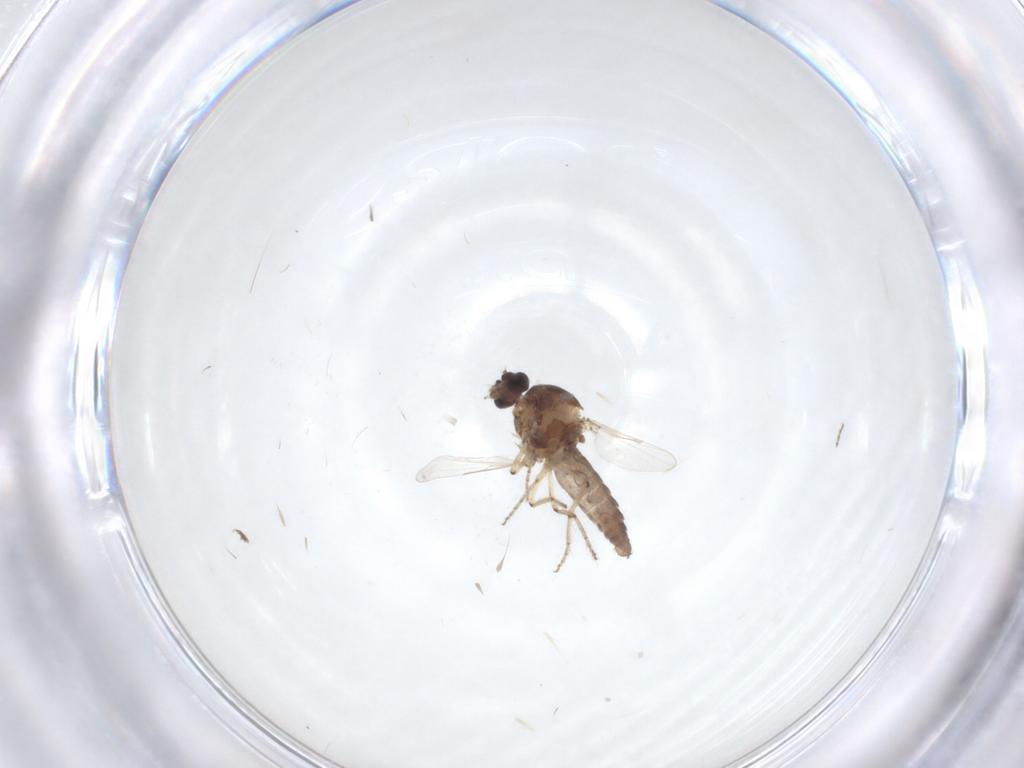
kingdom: Animalia
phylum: Arthropoda
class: Insecta
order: Diptera
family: Ceratopogonidae
